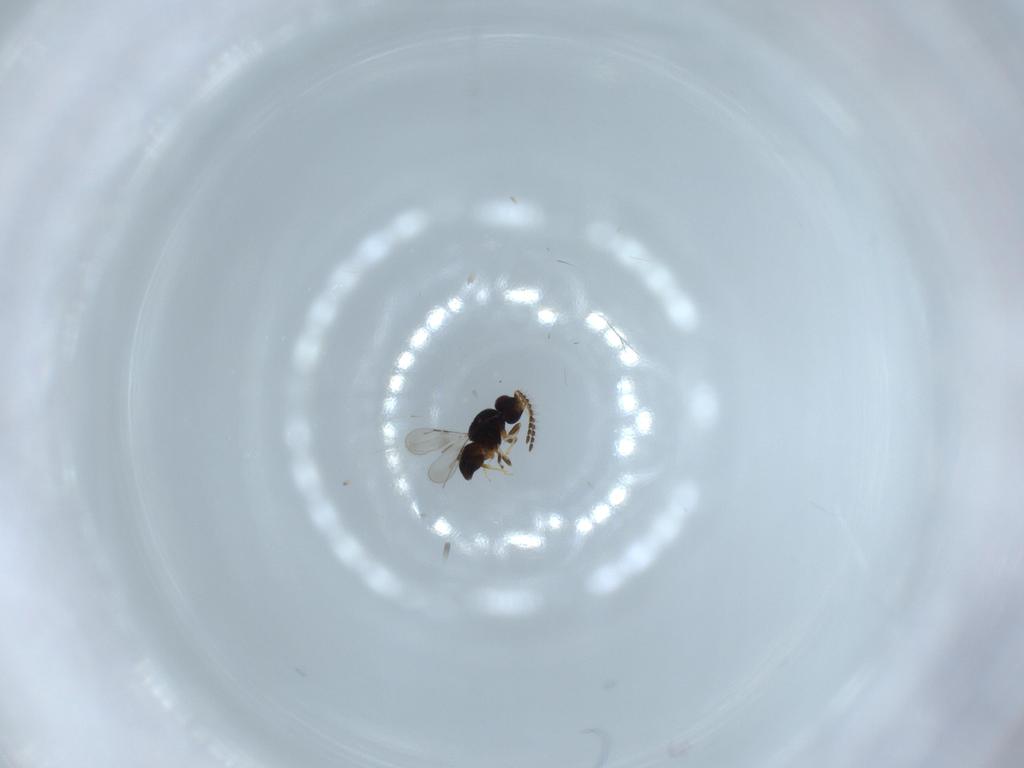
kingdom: Animalia
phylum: Arthropoda
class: Insecta
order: Hymenoptera
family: Bethylidae
